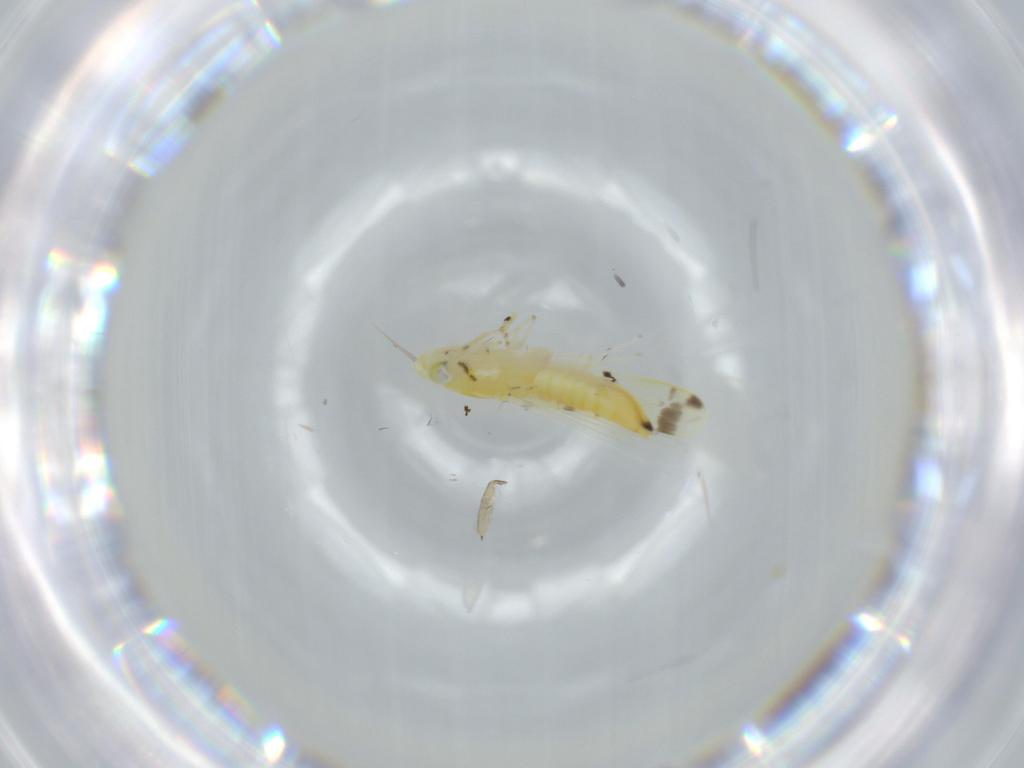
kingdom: Animalia
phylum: Arthropoda
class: Insecta
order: Hemiptera
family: Cicadellidae
